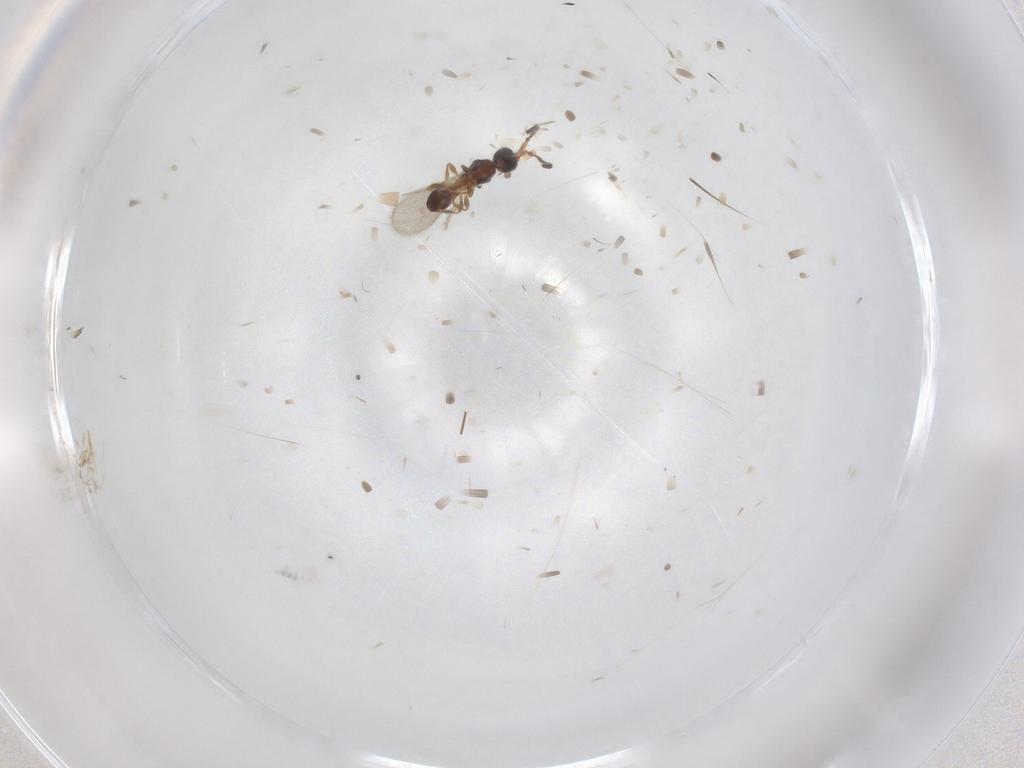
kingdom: Animalia
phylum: Arthropoda
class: Insecta
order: Hymenoptera
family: Diapriidae
